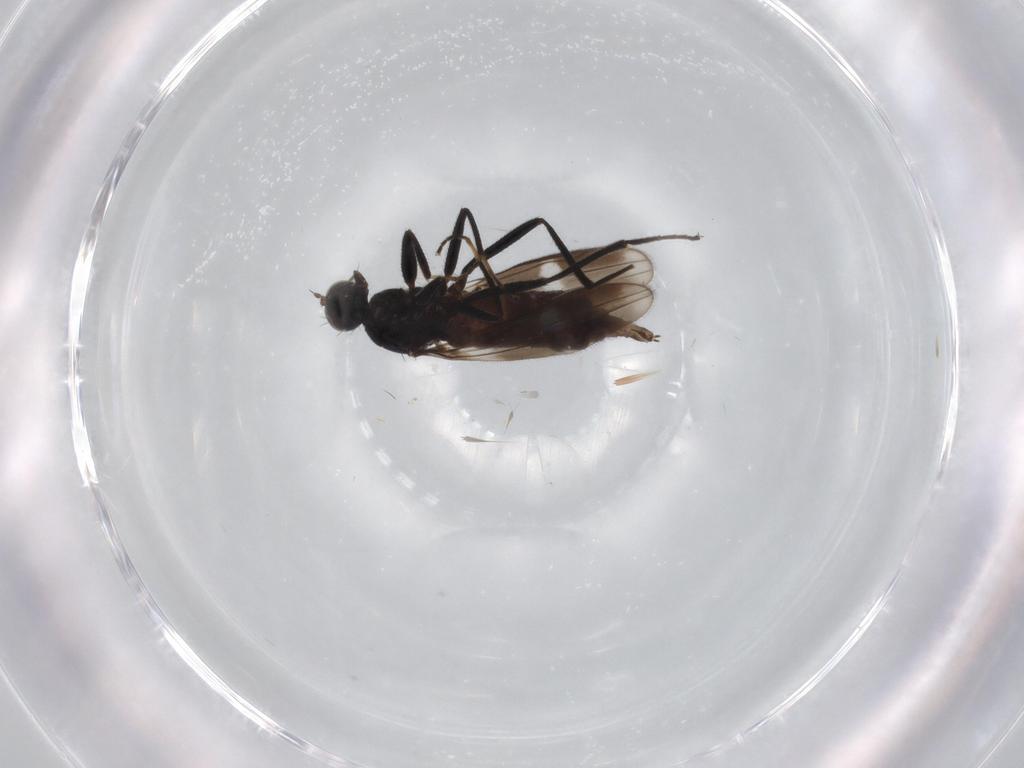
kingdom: Animalia
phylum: Arthropoda
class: Insecta
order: Diptera
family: Hybotidae
